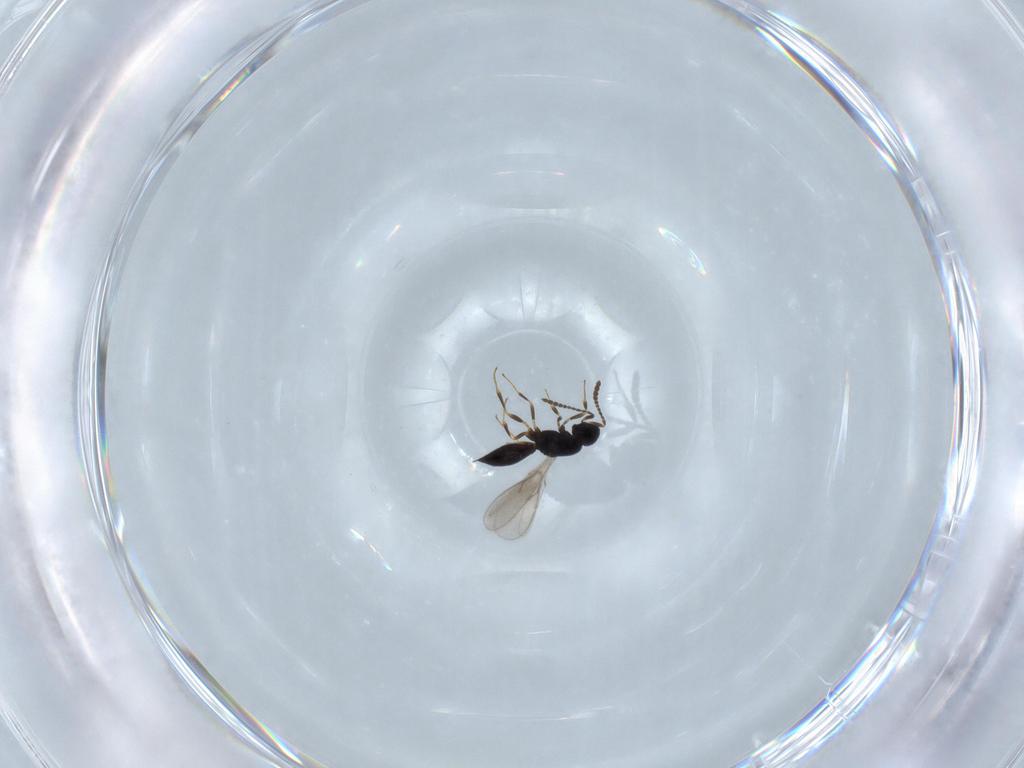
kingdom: Animalia
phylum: Arthropoda
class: Insecta
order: Hymenoptera
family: Scelionidae
